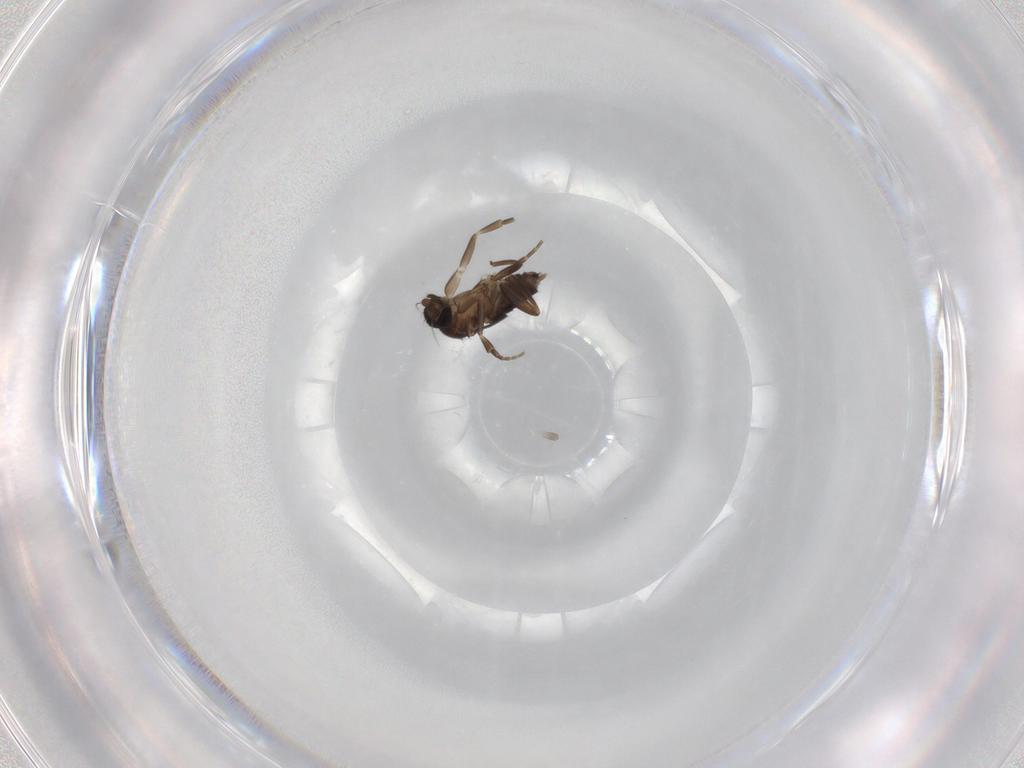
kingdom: Animalia
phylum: Arthropoda
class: Insecta
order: Diptera
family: Phoridae
